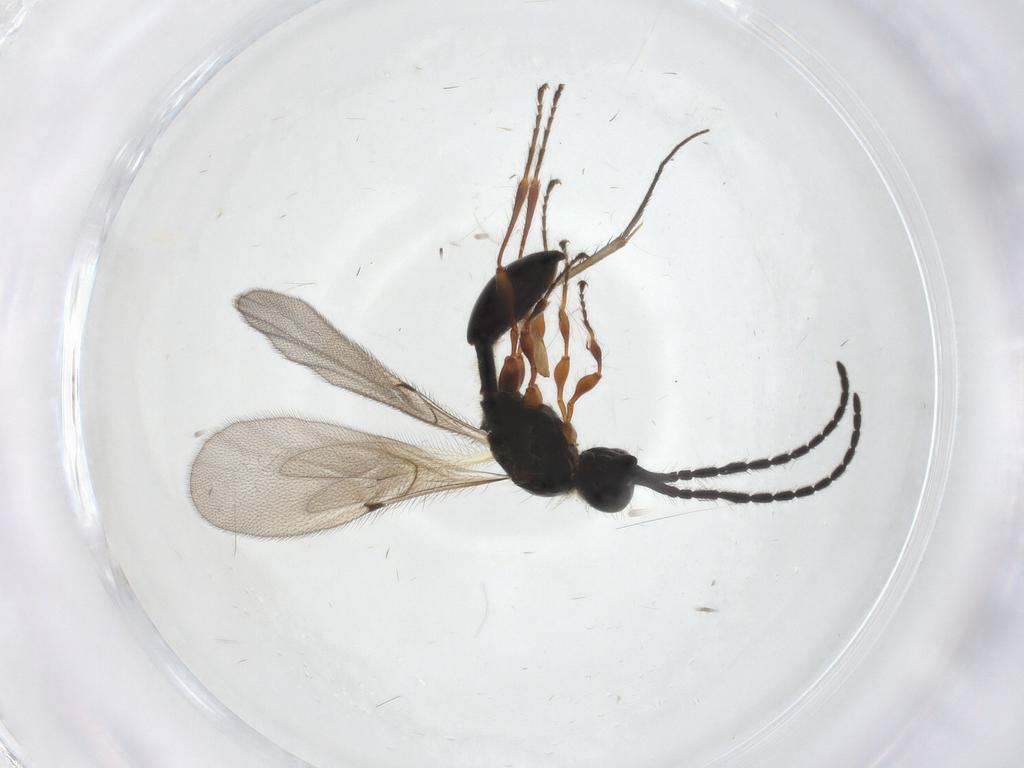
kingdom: Animalia
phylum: Arthropoda
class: Insecta
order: Hymenoptera
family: Diapriidae
